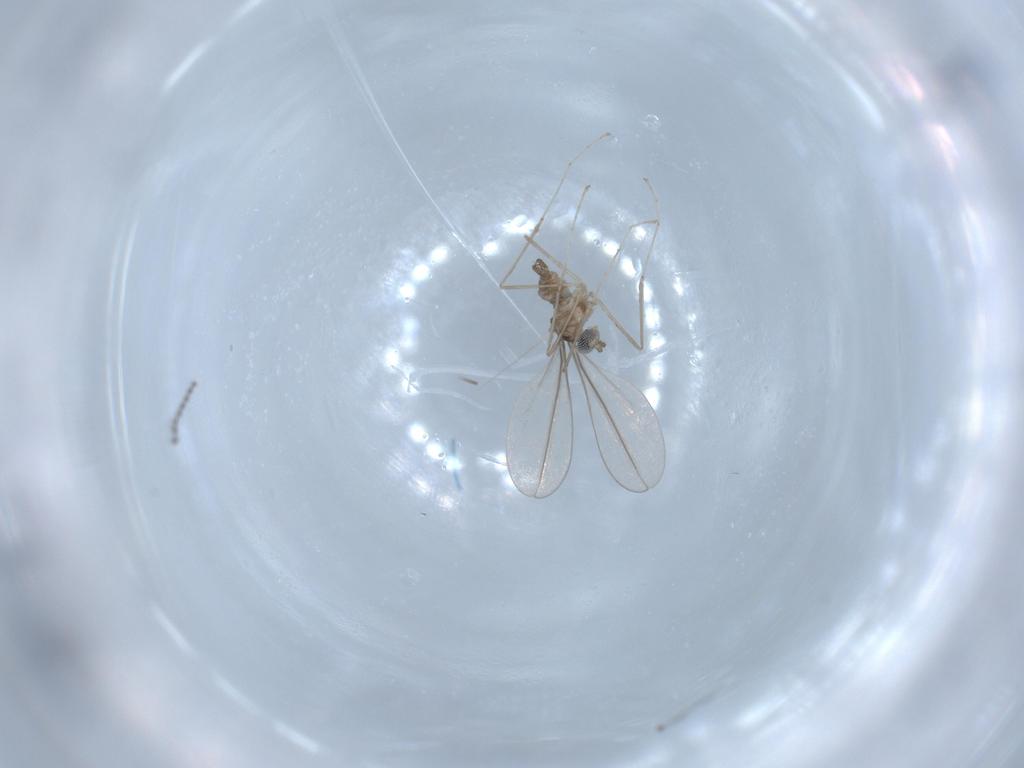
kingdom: Animalia
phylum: Arthropoda
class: Insecta
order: Diptera
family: Cecidomyiidae
